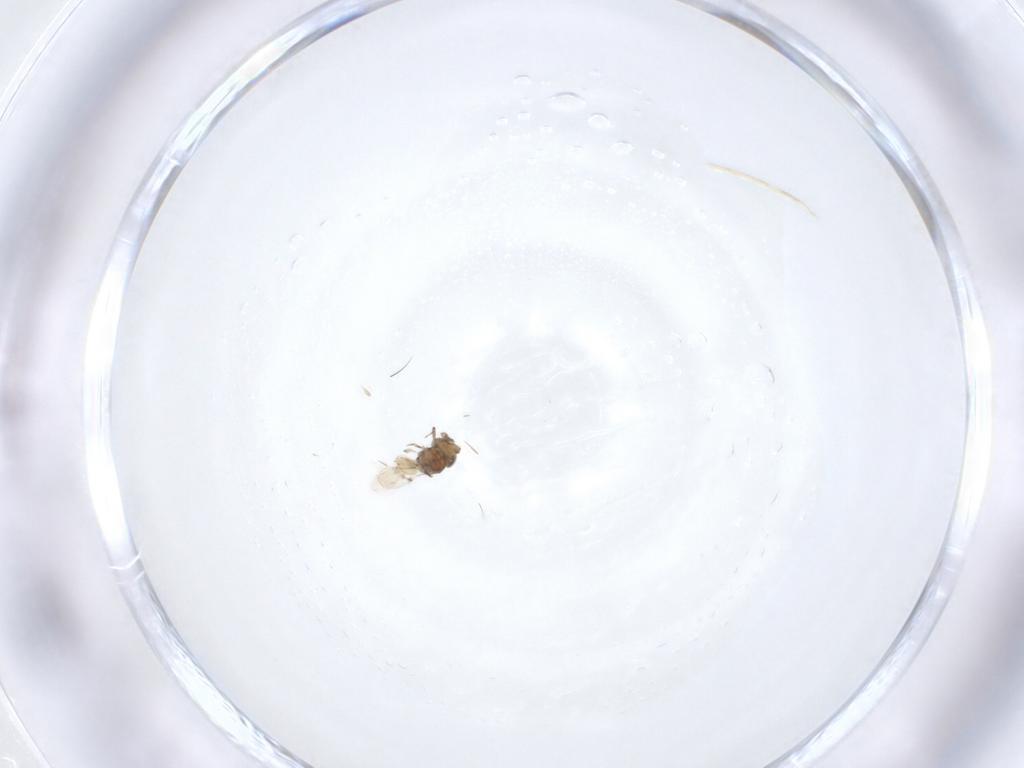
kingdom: Animalia
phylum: Arthropoda
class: Insecta
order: Hymenoptera
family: Scelionidae
